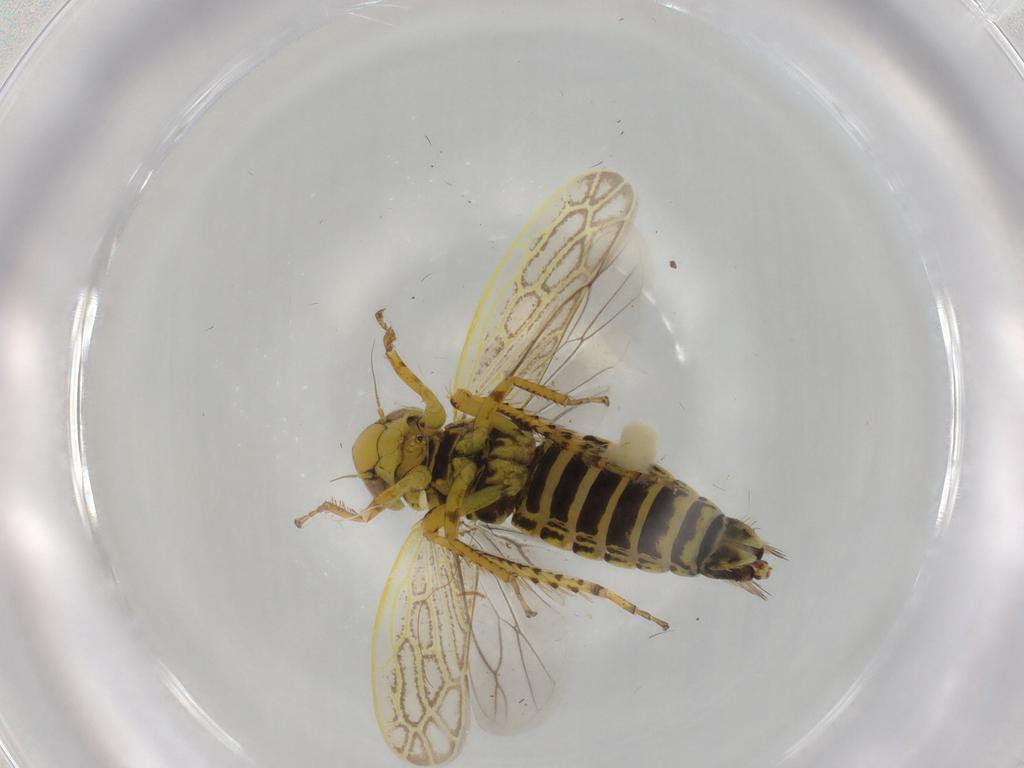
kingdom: Animalia
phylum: Arthropoda
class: Insecta
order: Hemiptera
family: Cicadellidae
